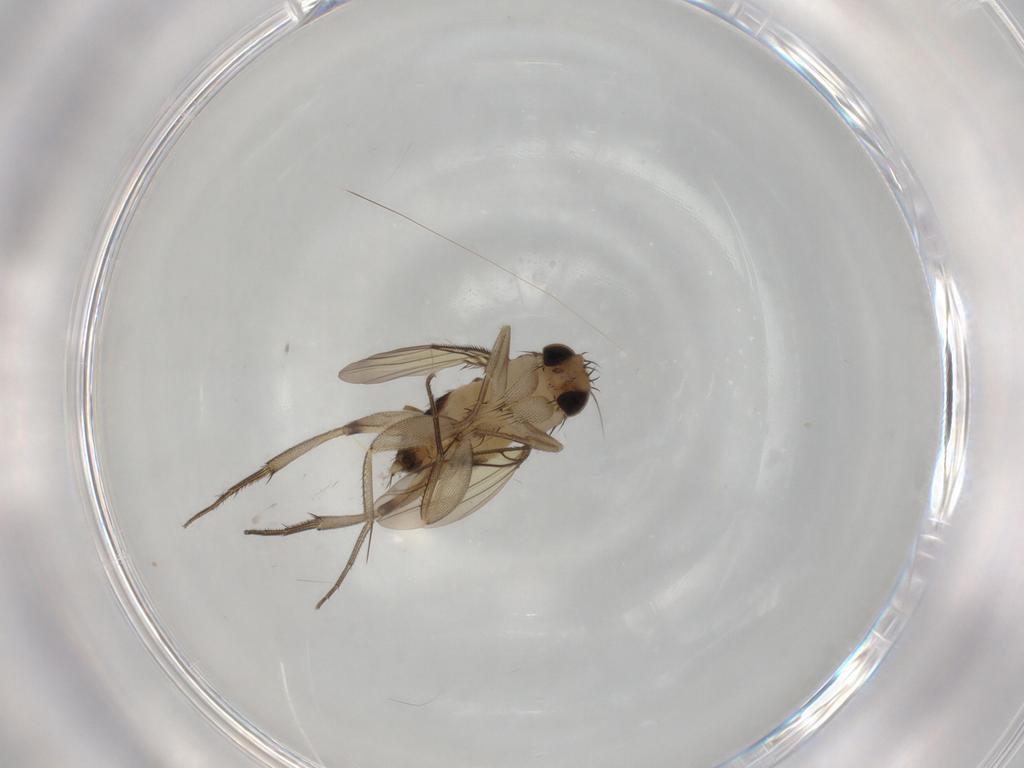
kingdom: Animalia
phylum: Arthropoda
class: Insecta
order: Diptera
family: Phoridae
